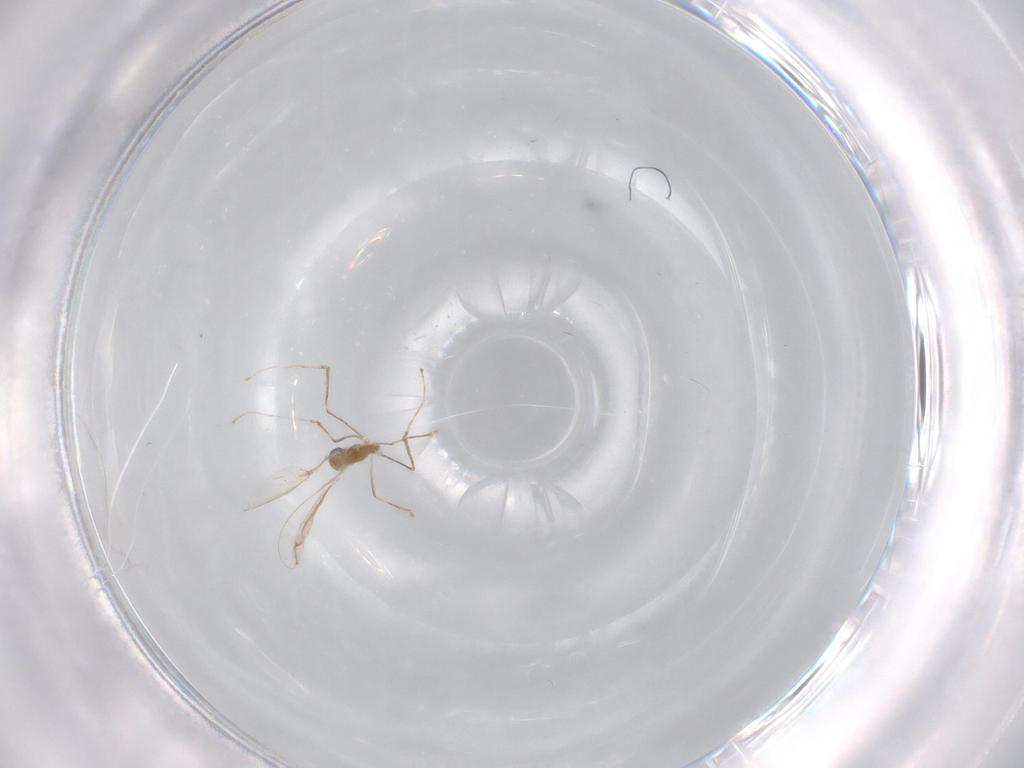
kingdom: Animalia
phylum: Arthropoda
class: Insecta
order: Diptera
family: Cecidomyiidae
